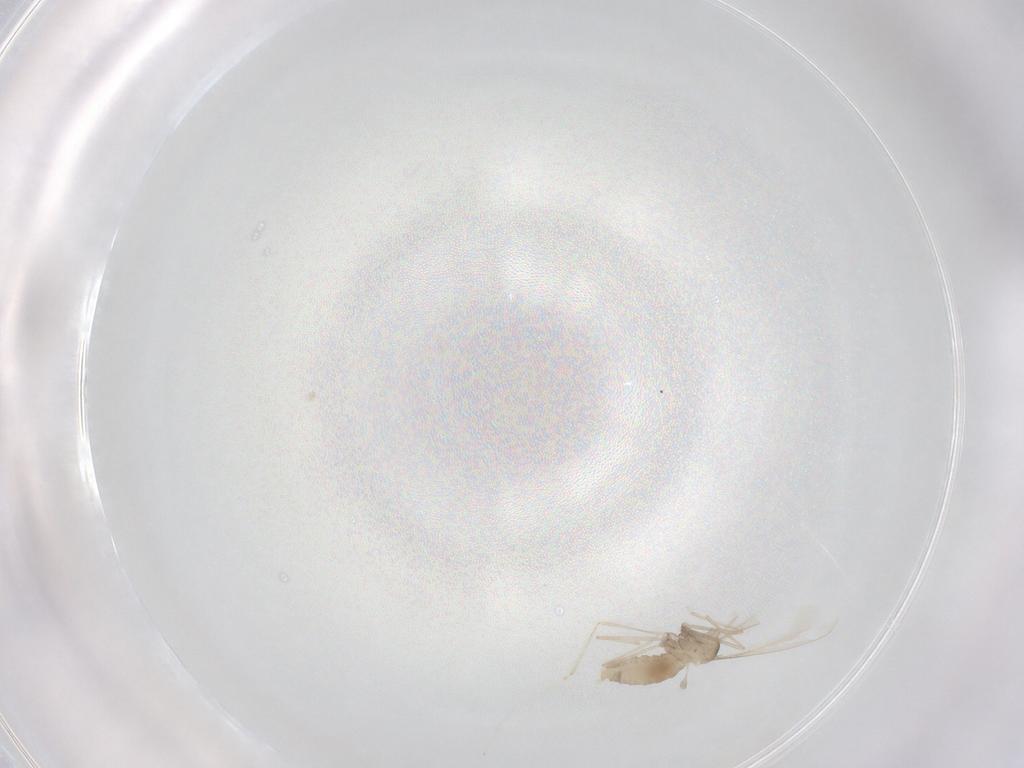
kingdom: Animalia
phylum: Arthropoda
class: Insecta
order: Diptera
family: Cecidomyiidae
